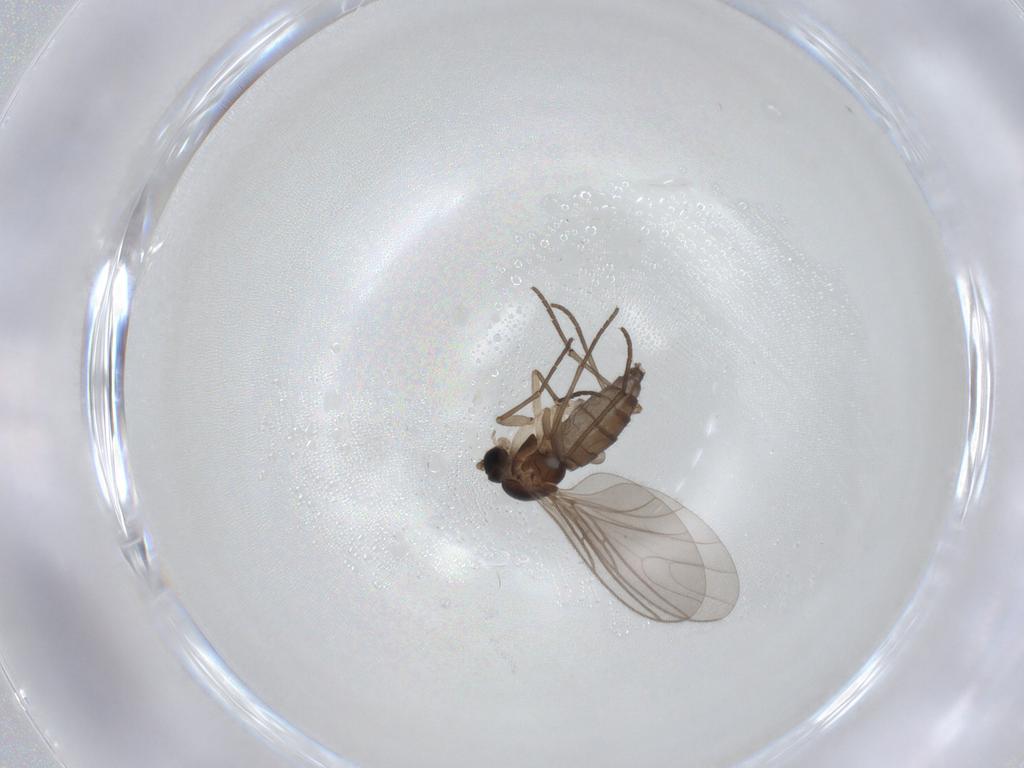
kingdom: Animalia
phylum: Arthropoda
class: Insecta
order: Diptera
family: Sciaridae
